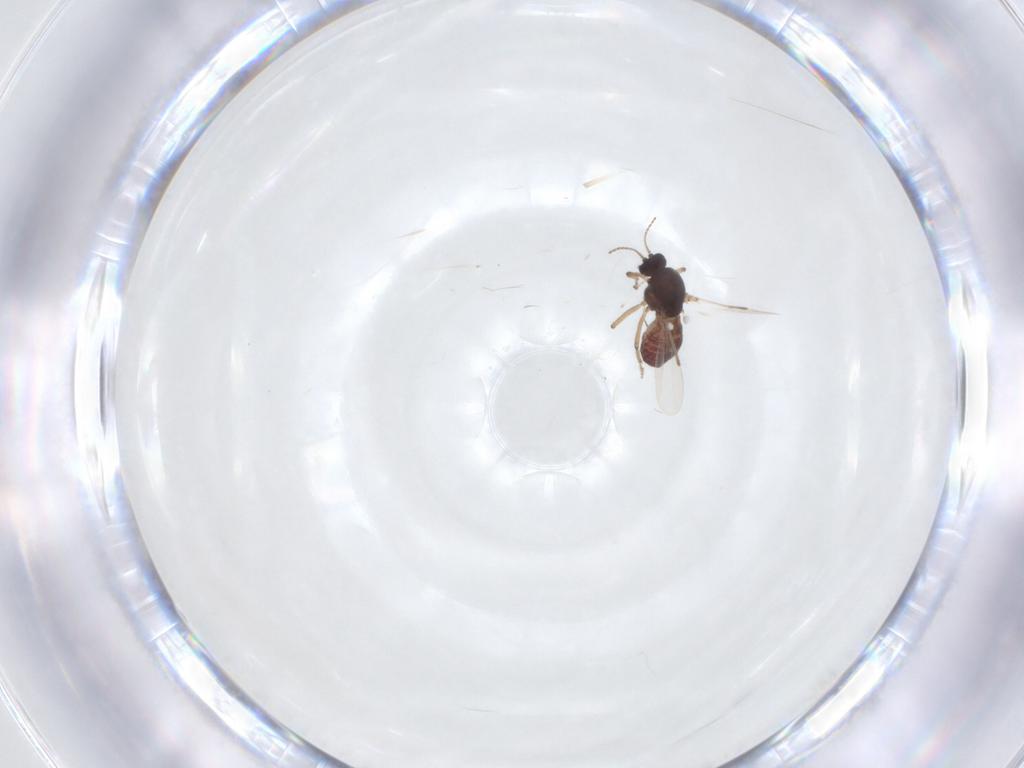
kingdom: Animalia
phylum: Arthropoda
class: Insecta
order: Diptera
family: Ceratopogonidae
